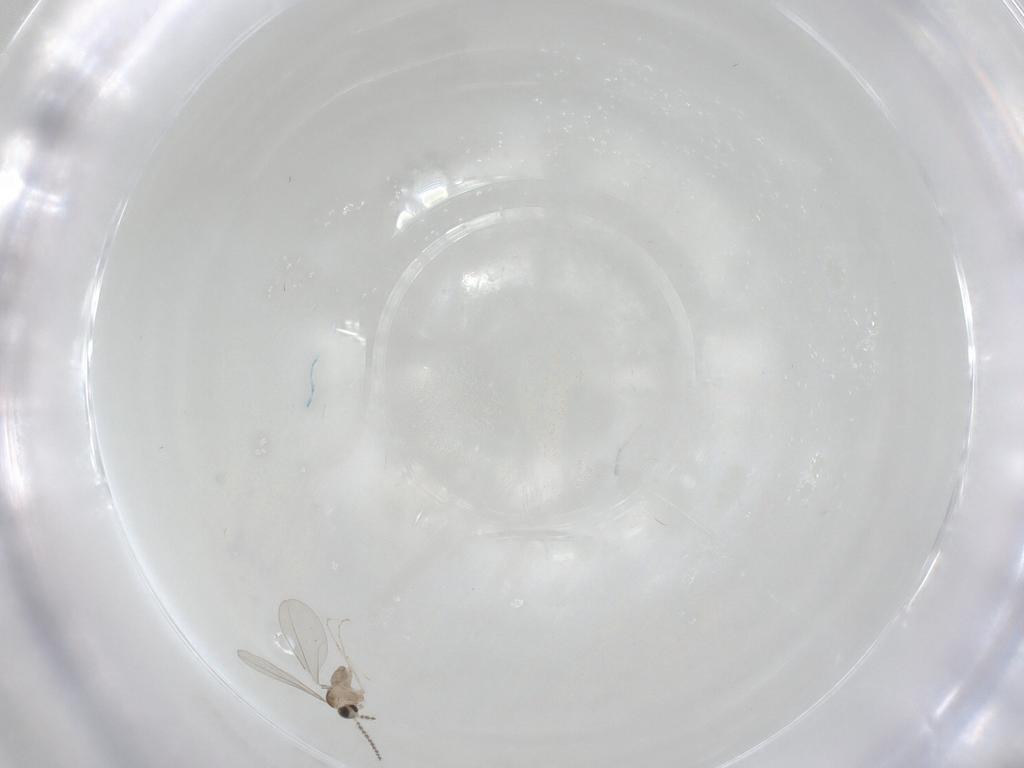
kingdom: Animalia
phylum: Arthropoda
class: Insecta
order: Diptera
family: Cecidomyiidae
